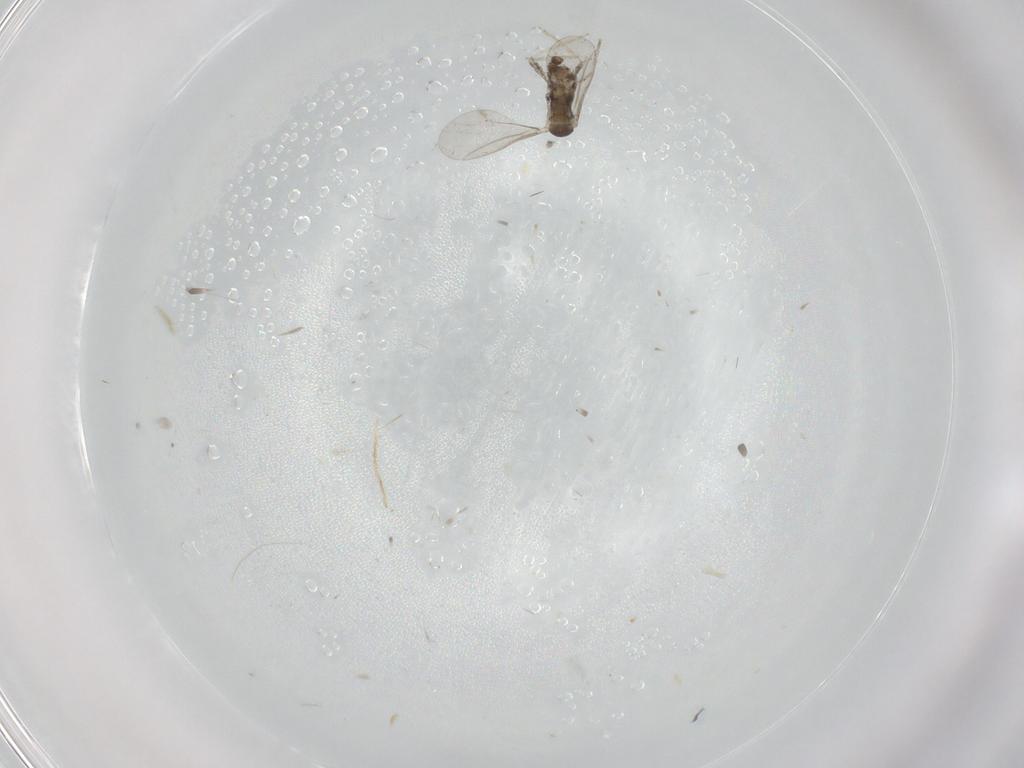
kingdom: Animalia
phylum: Arthropoda
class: Insecta
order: Diptera
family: Cecidomyiidae
